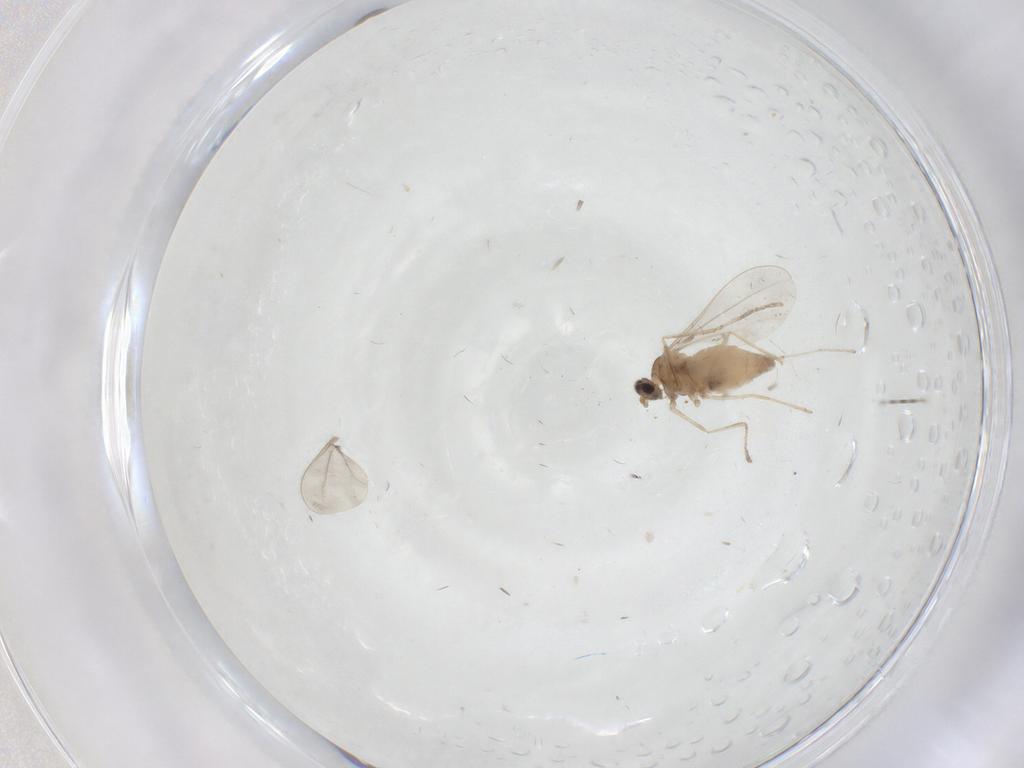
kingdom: Animalia
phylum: Arthropoda
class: Insecta
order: Diptera
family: Cecidomyiidae
